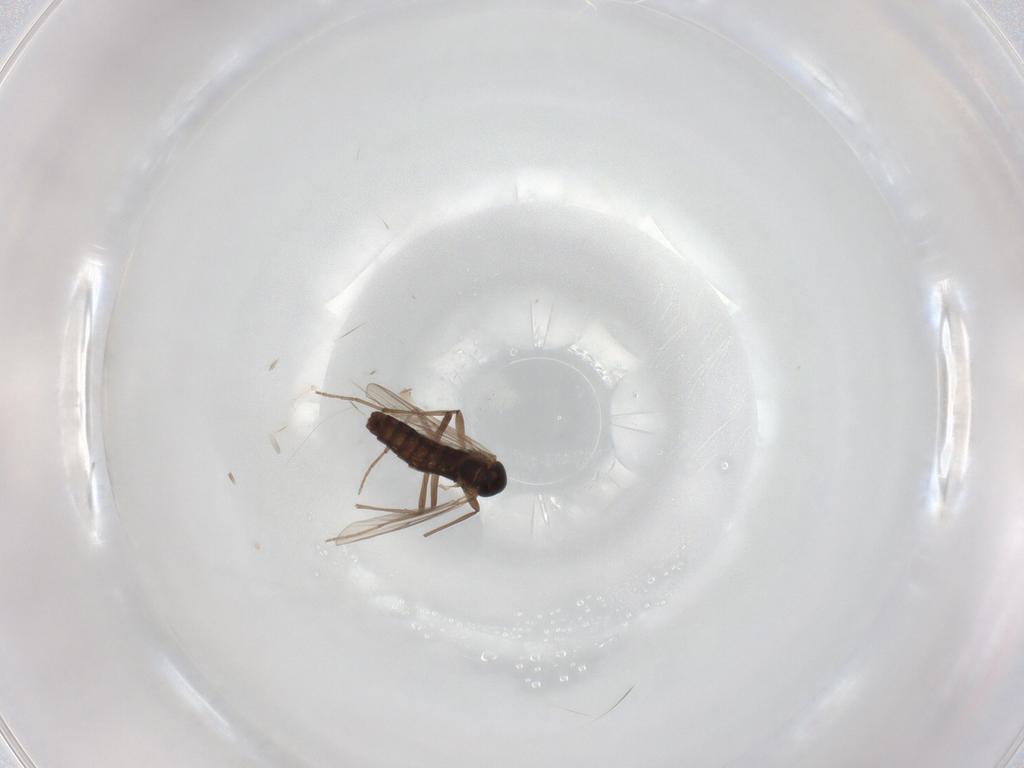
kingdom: Animalia
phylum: Arthropoda
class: Insecta
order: Diptera
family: Chironomidae
